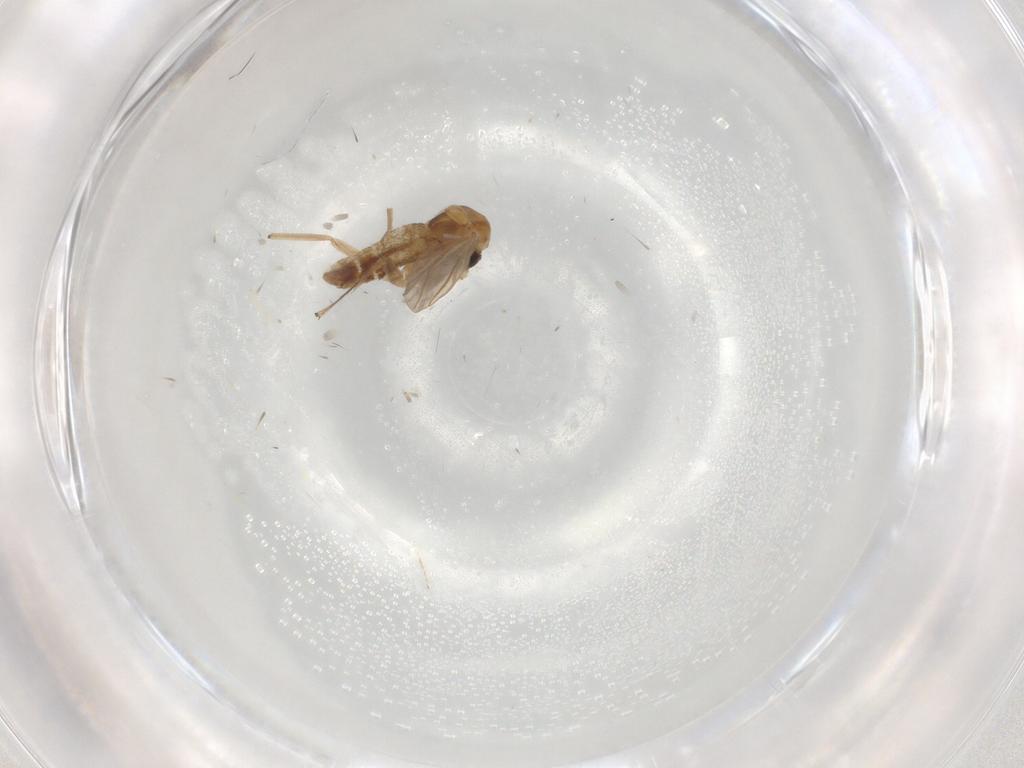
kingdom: Animalia
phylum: Arthropoda
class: Insecta
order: Diptera
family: Chironomidae
